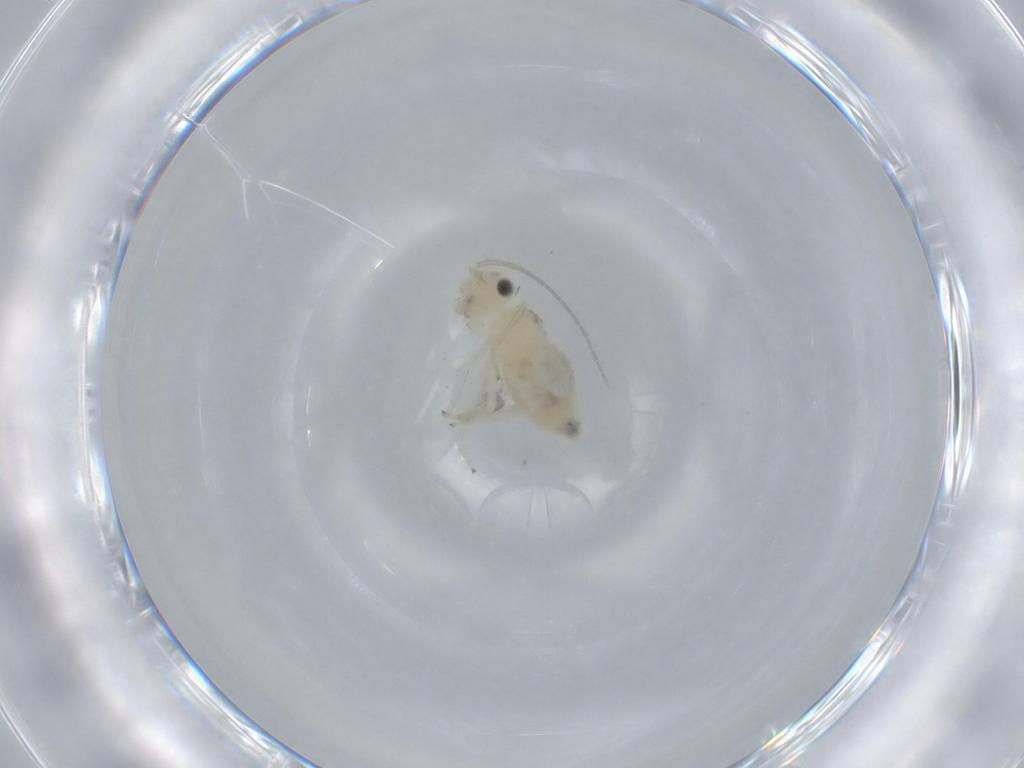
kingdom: Animalia
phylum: Arthropoda
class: Insecta
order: Psocodea
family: Caeciliusidae
